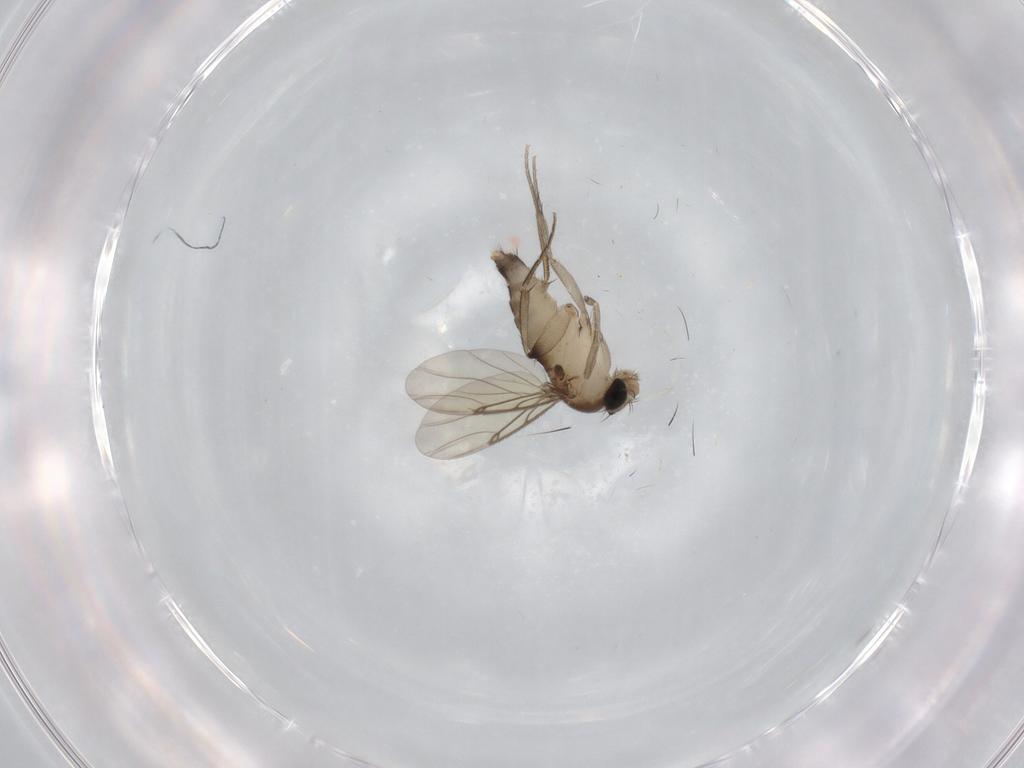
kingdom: Animalia
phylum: Arthropoda
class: Insecta
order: Diptera
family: Phoridae
